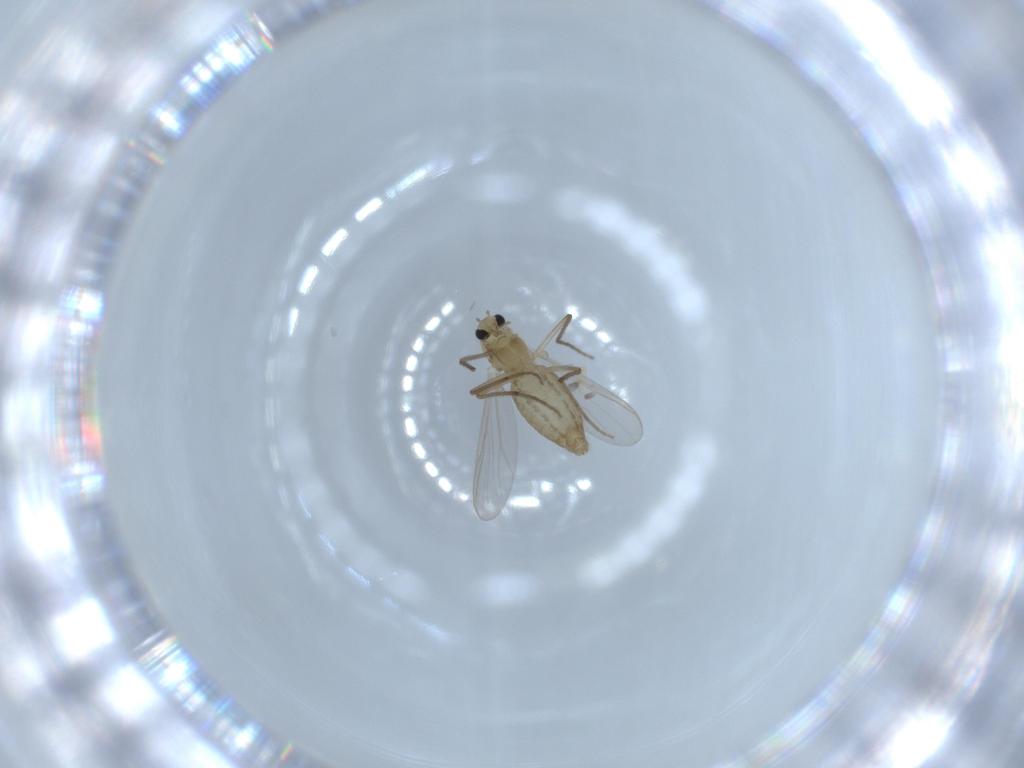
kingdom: Animalia
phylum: Arthropoda
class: Insecta
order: Diptera
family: Chironomidae
